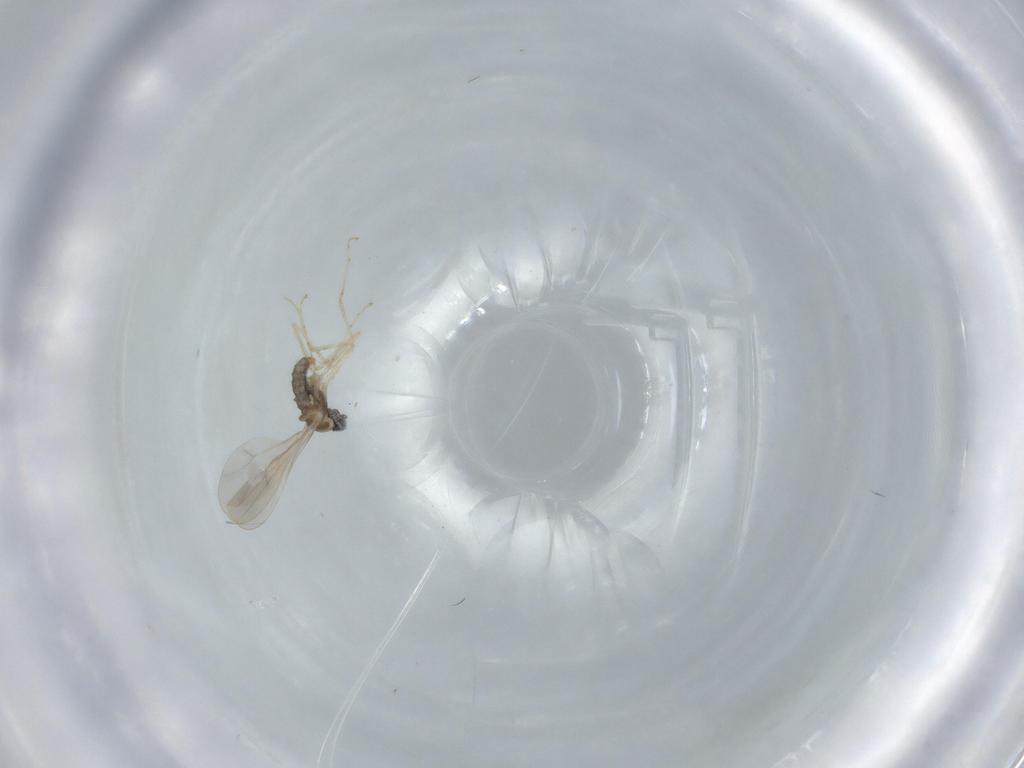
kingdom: Animalia
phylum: Arthropoda
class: Insecta
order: Diptera
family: Cecidomyiidae
